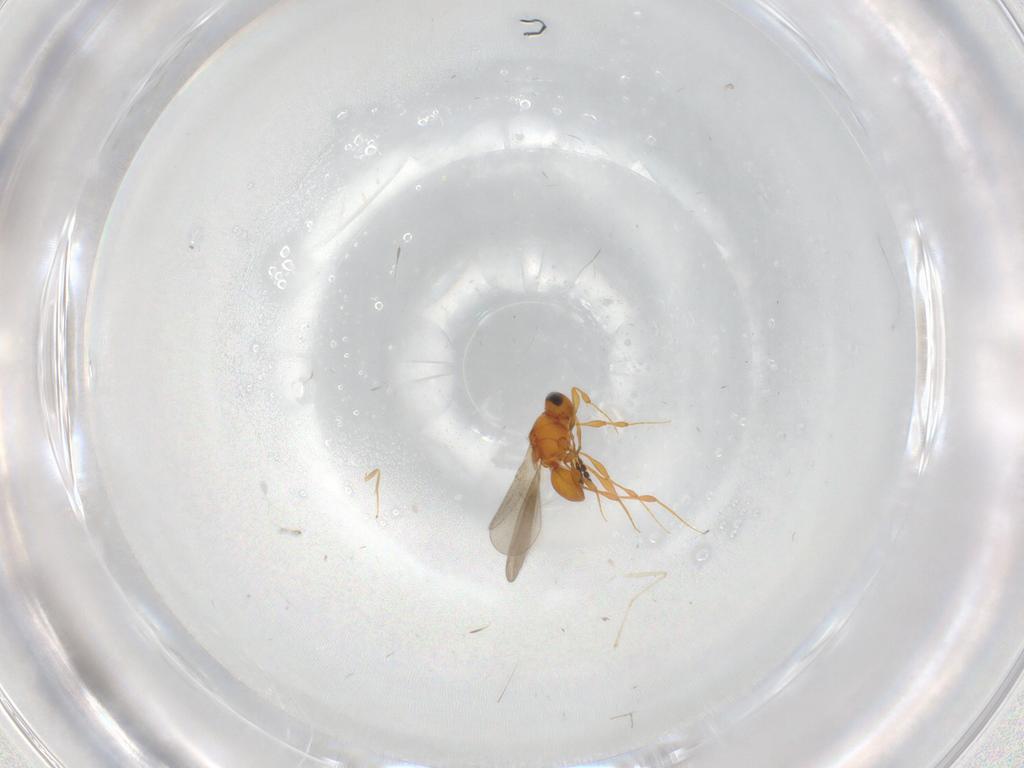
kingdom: Animalia
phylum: Arthropoda
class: Insecta
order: Hymenoptera
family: Platygastridae
